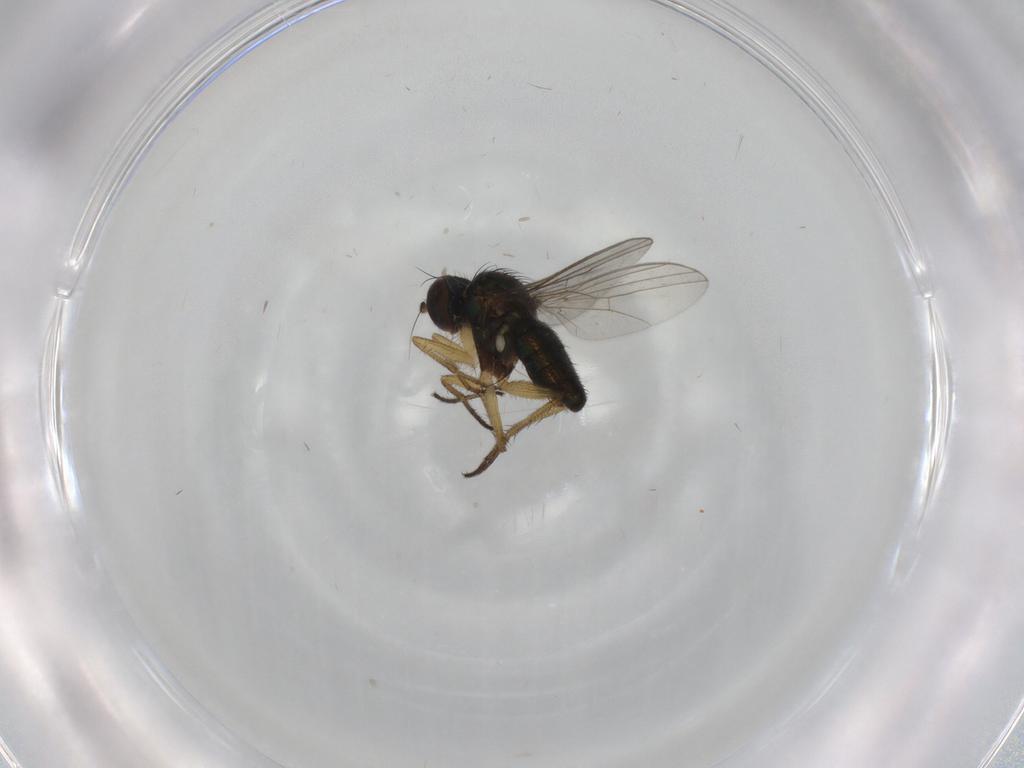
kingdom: Animalia
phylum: Arthropoda
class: Insecta
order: Diptera
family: Dolichopodidae
